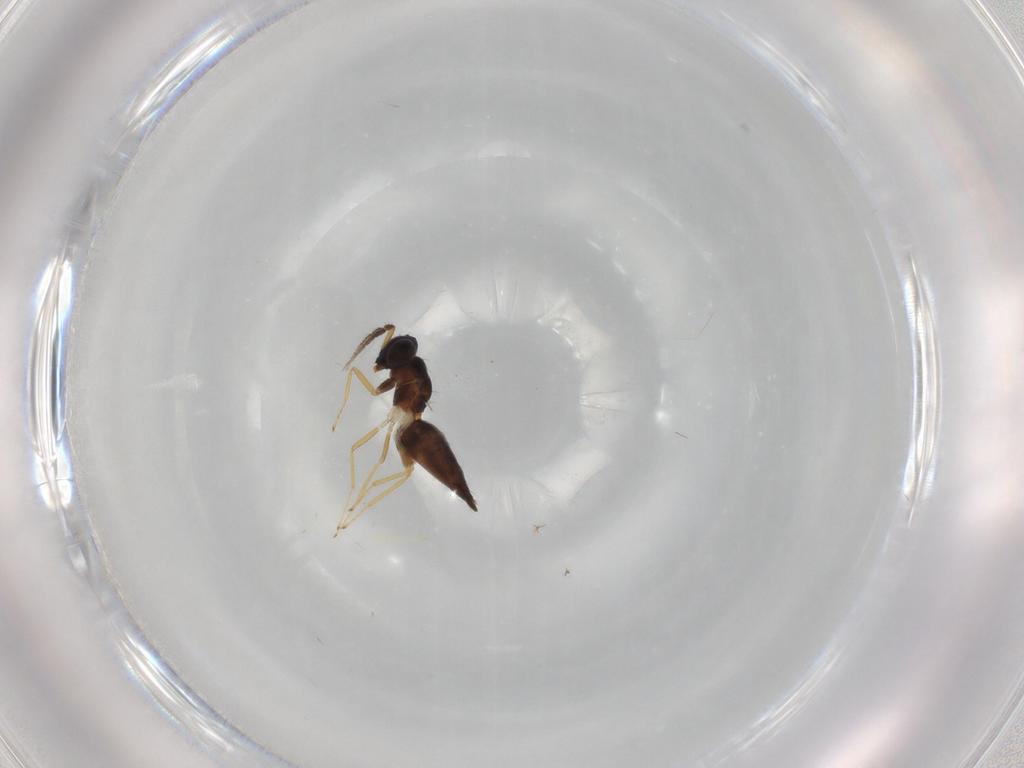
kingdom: Animalia
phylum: Arthropoda
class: Insecta
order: Hymenoptera
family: Eulophidae
